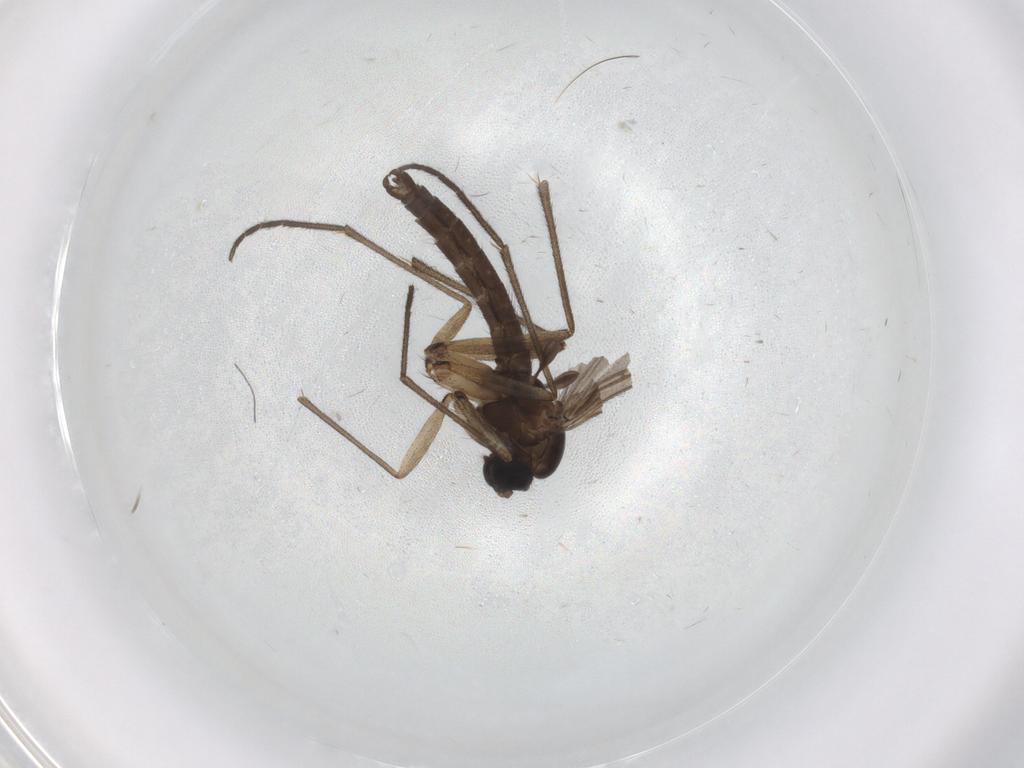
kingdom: Animalia
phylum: Arthropoda
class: Insecta
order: Diptera
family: Sciaridae
